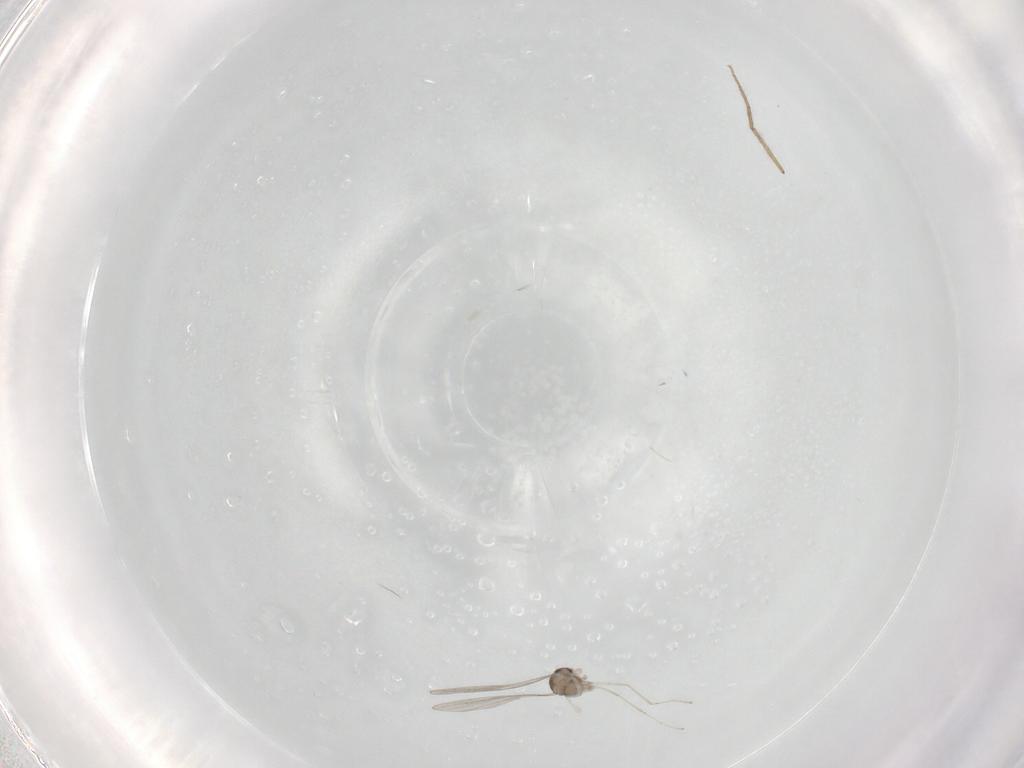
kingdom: Animalia
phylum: Arthropoda
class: Insecta
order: Diptera
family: Cecidomyiidae
